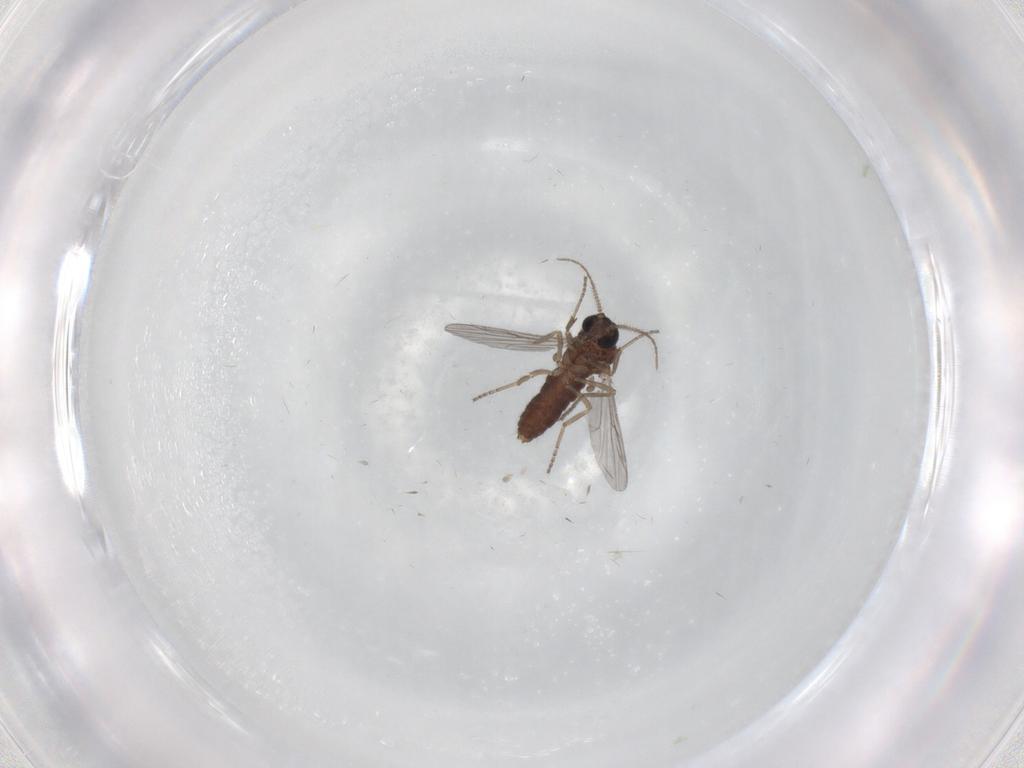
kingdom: Animalia
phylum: Arthropoda
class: Insecta
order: Diptera
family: Ceratopogonidae
